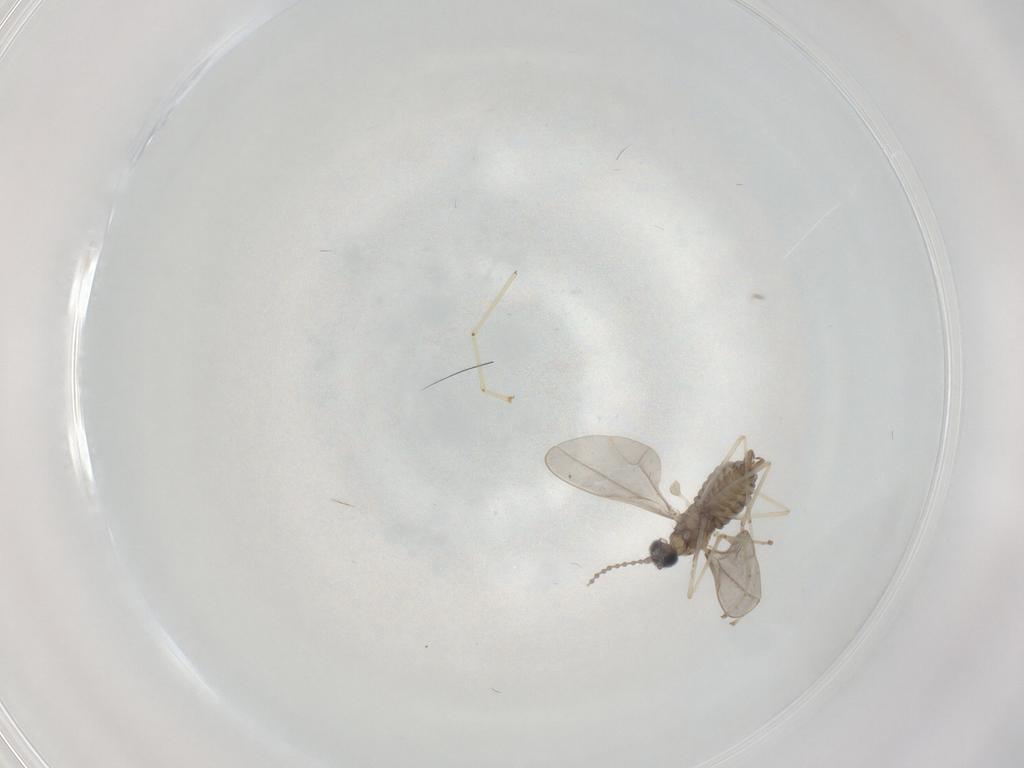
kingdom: Animalia
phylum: Arthropoda
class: Insecta
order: Diptera
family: Cecidomyiidae
